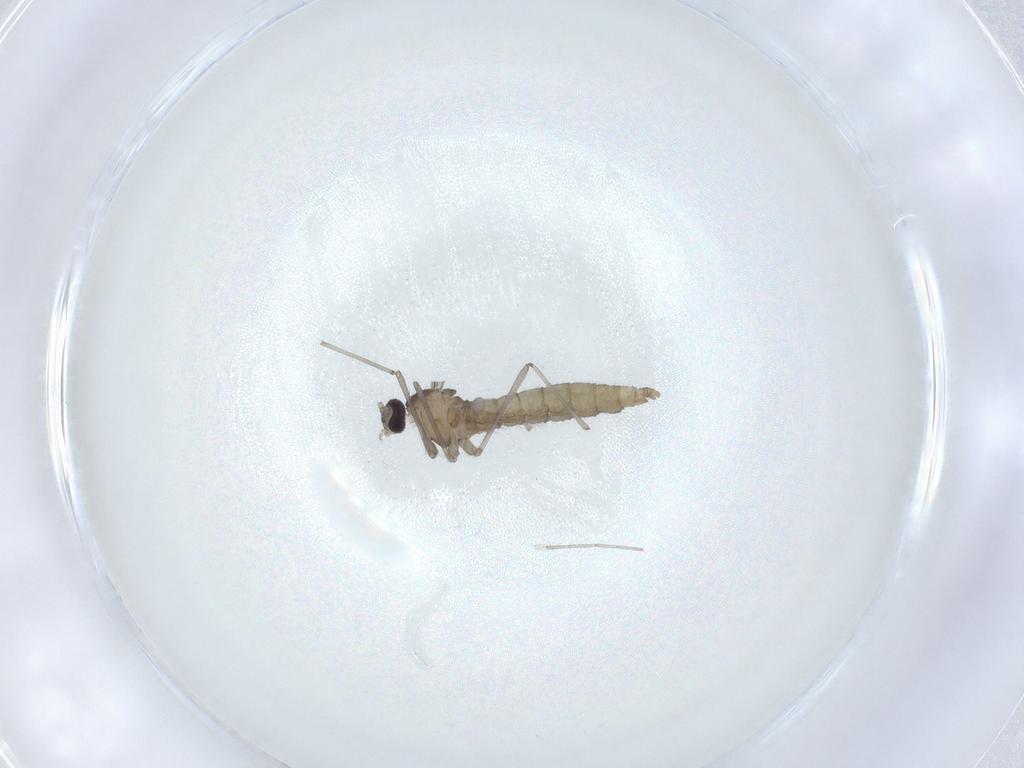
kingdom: Animalia
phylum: Arthropoda
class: Insecta
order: Diptera
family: Cecidomyiidae
